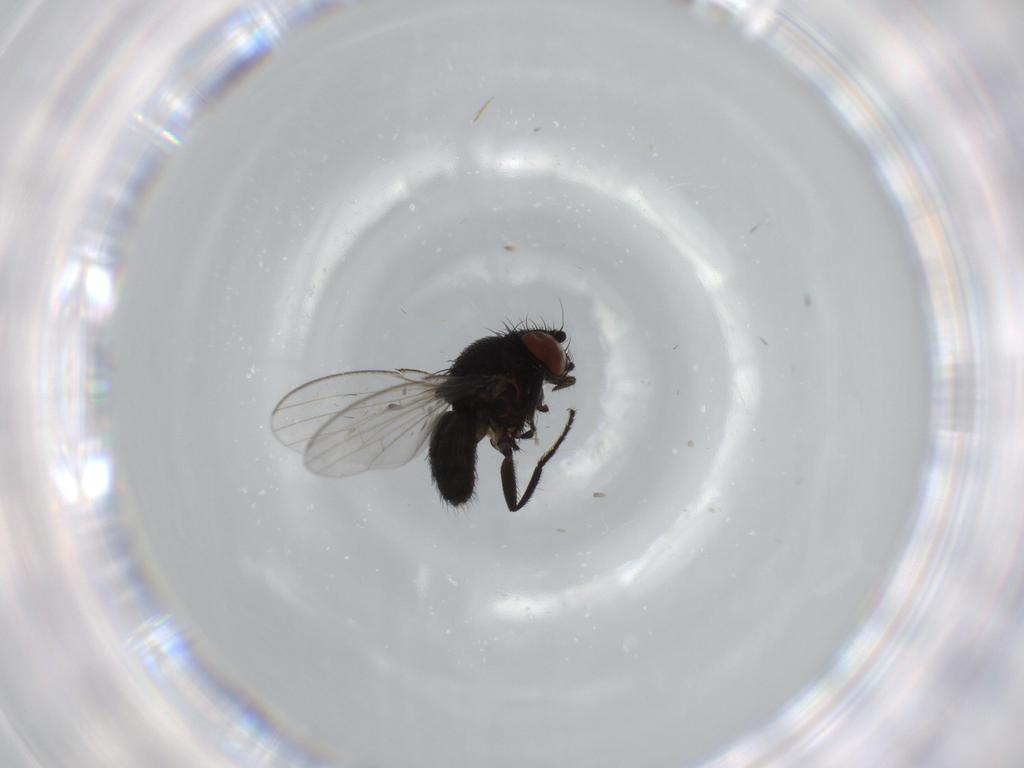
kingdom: Animalia
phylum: Arthropoda
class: Insecta
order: Diptera
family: Milichiidae
